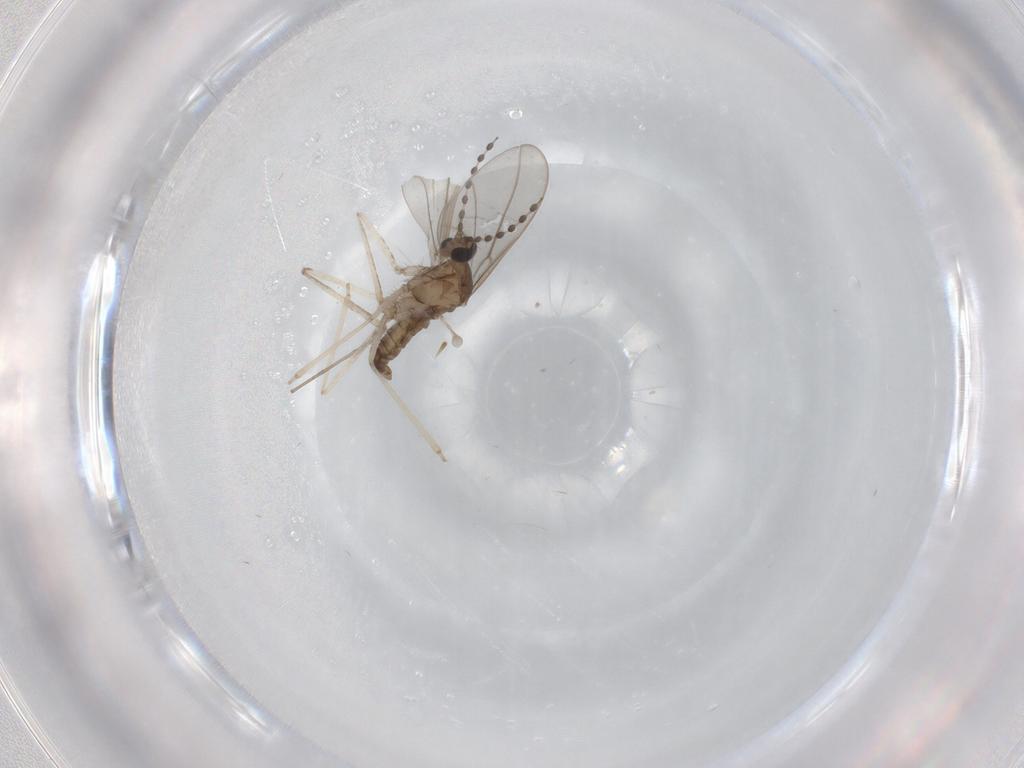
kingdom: Animalia
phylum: Arthropoda
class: Insecta
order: Diptera
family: Cecidomyiidae
